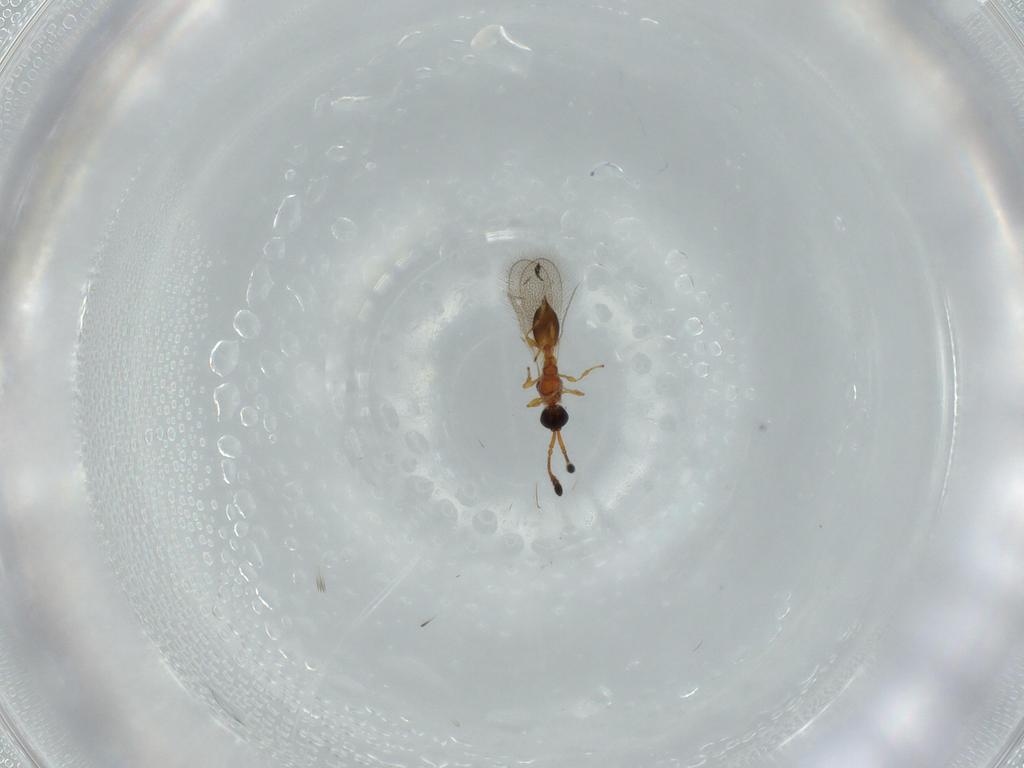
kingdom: Animalia
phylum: Arthropoda
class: Insecta
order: Hymenoptera
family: Diapriidae
